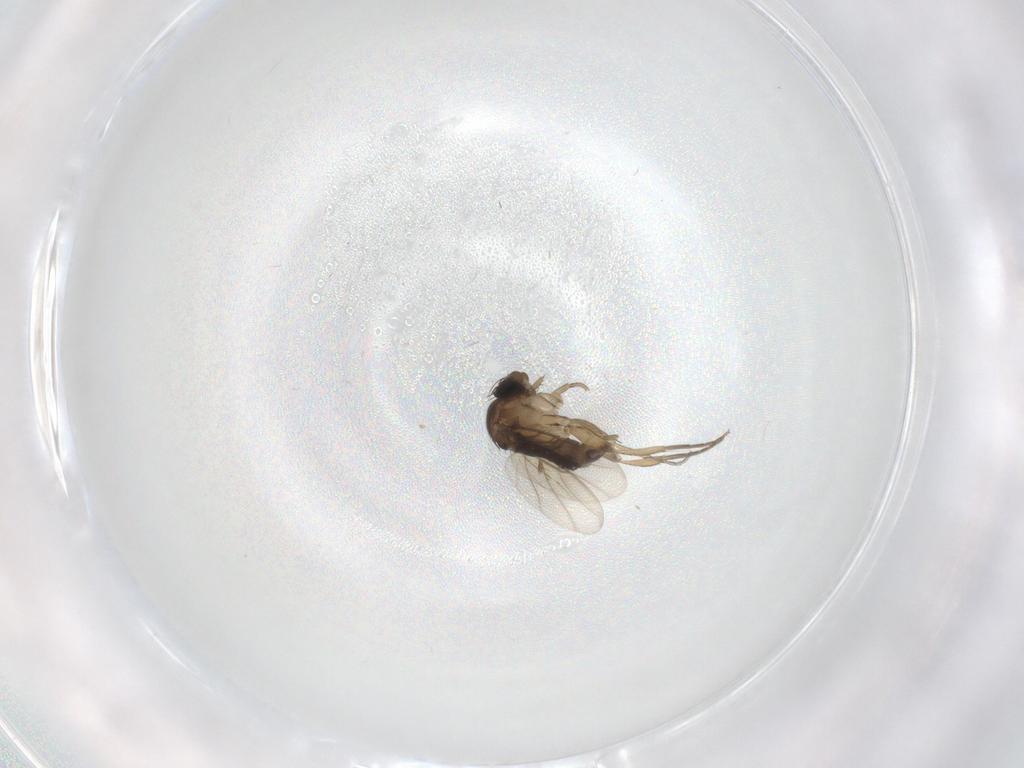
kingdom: Animalia
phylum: Arthropoda
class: Insecta
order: Diptera
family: Phoridae
